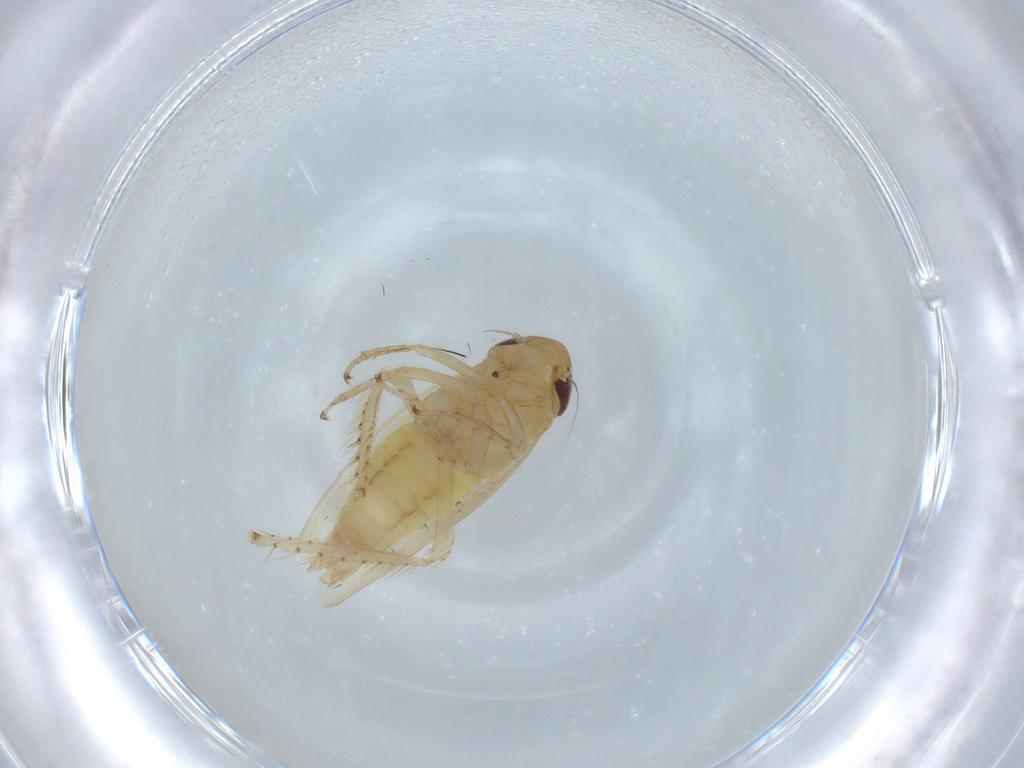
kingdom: Animalia
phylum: Arthropoda
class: Insecta
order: Hemiptera
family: Cicadellidae
